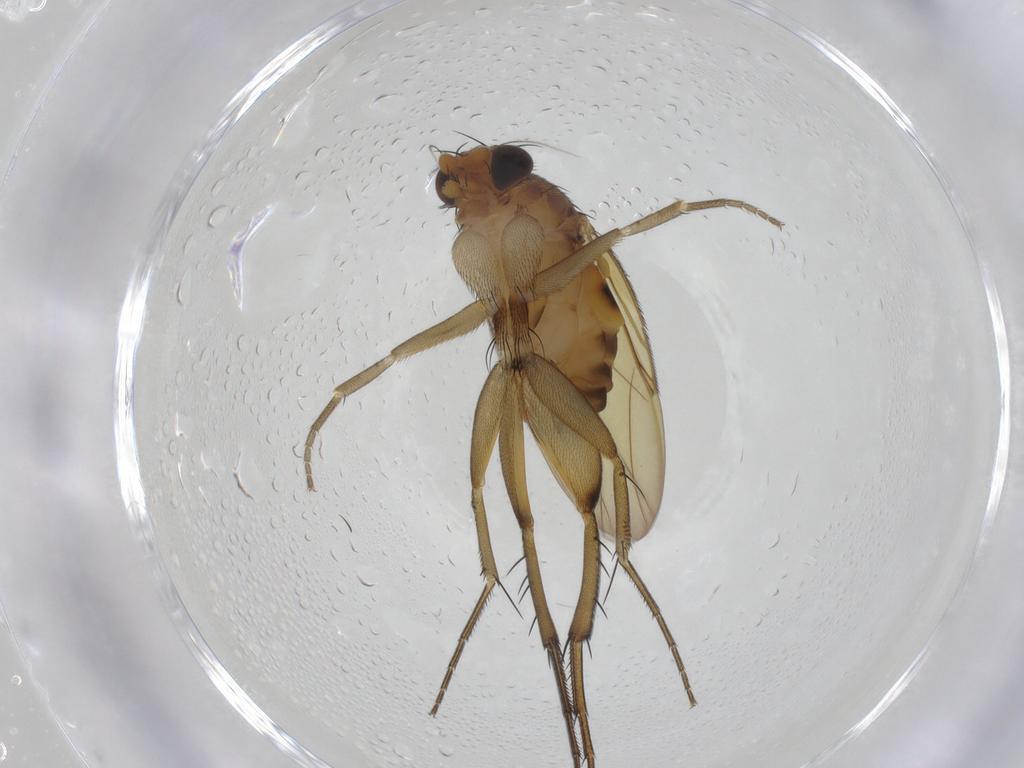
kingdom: Animalia
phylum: Arthropoda
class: Insecta
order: Diptera
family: Phoridae
